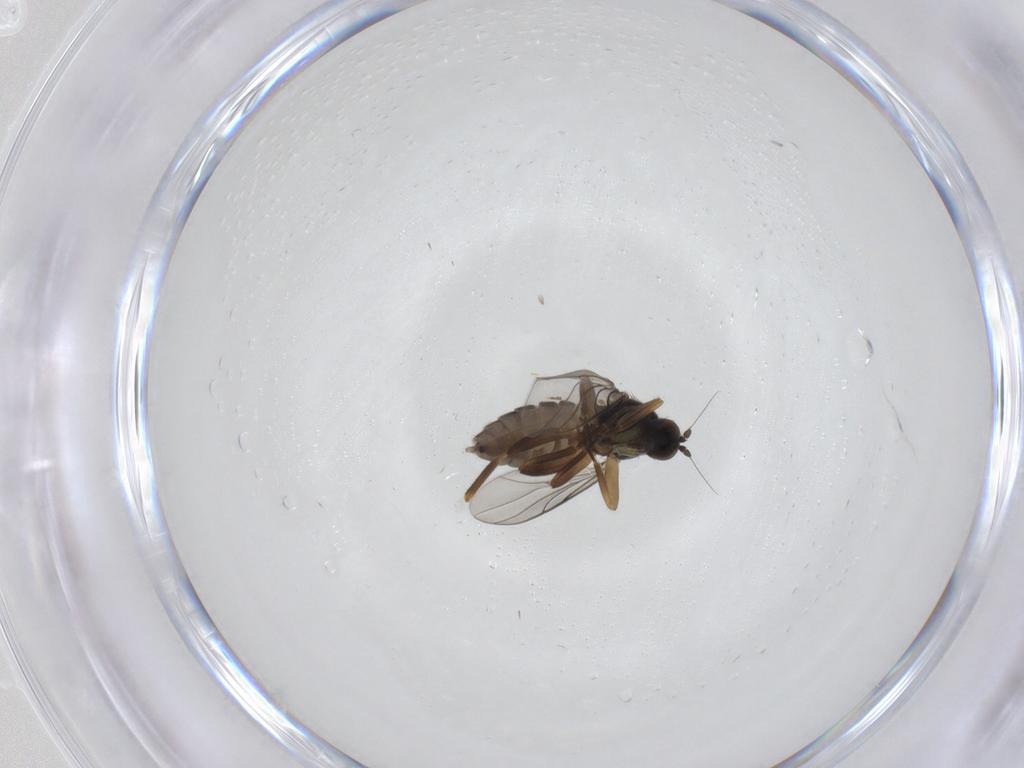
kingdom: Animalia
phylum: Arthropoda
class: Insecta
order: Diptera
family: Hybotidae
